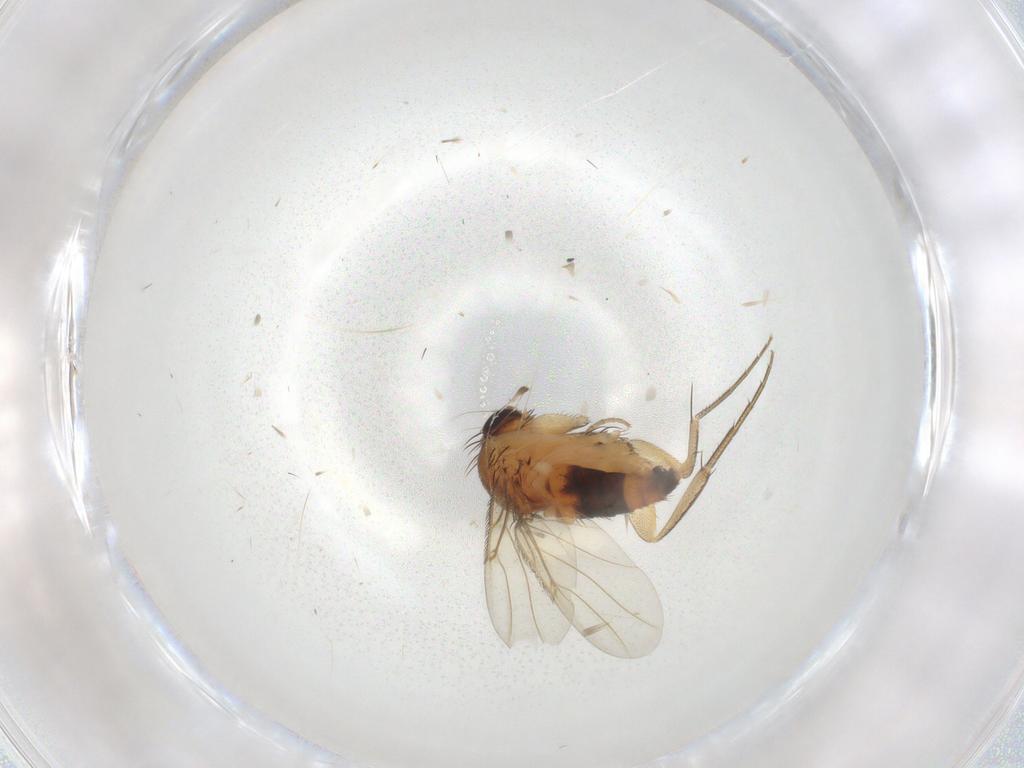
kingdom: Animalia
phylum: Arthropoda
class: Insecta
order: Diptera
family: Phoridae
